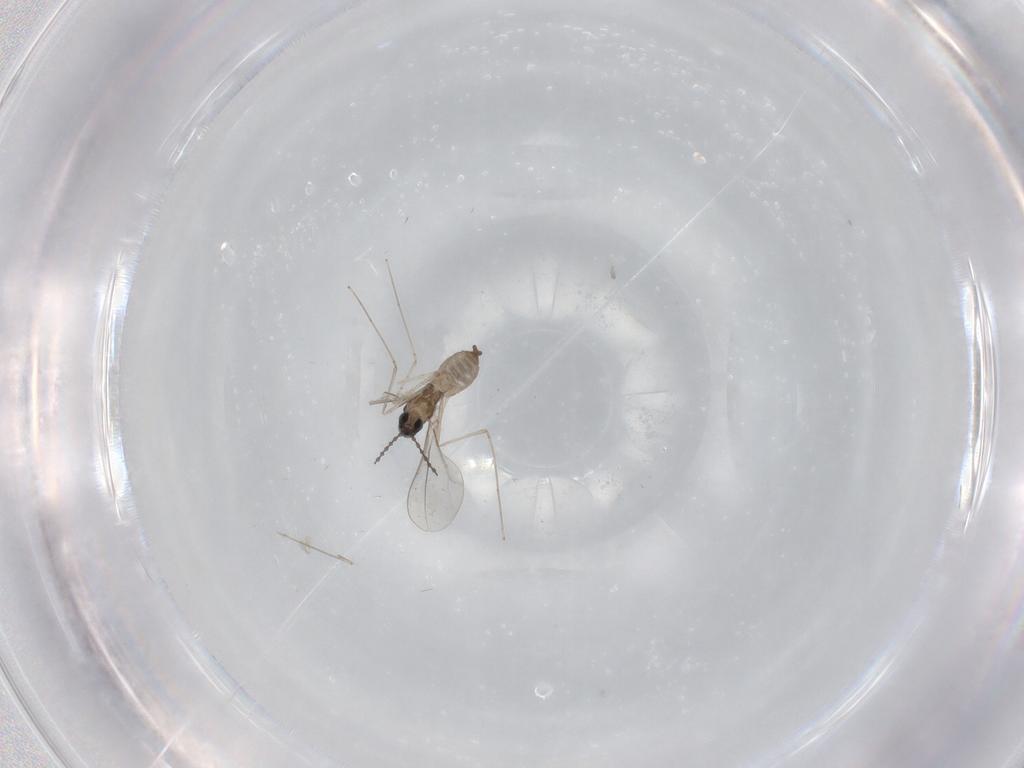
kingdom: Animalia
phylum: Arthropoda
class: Insecta
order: Diptera
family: Cecidomyiidae
